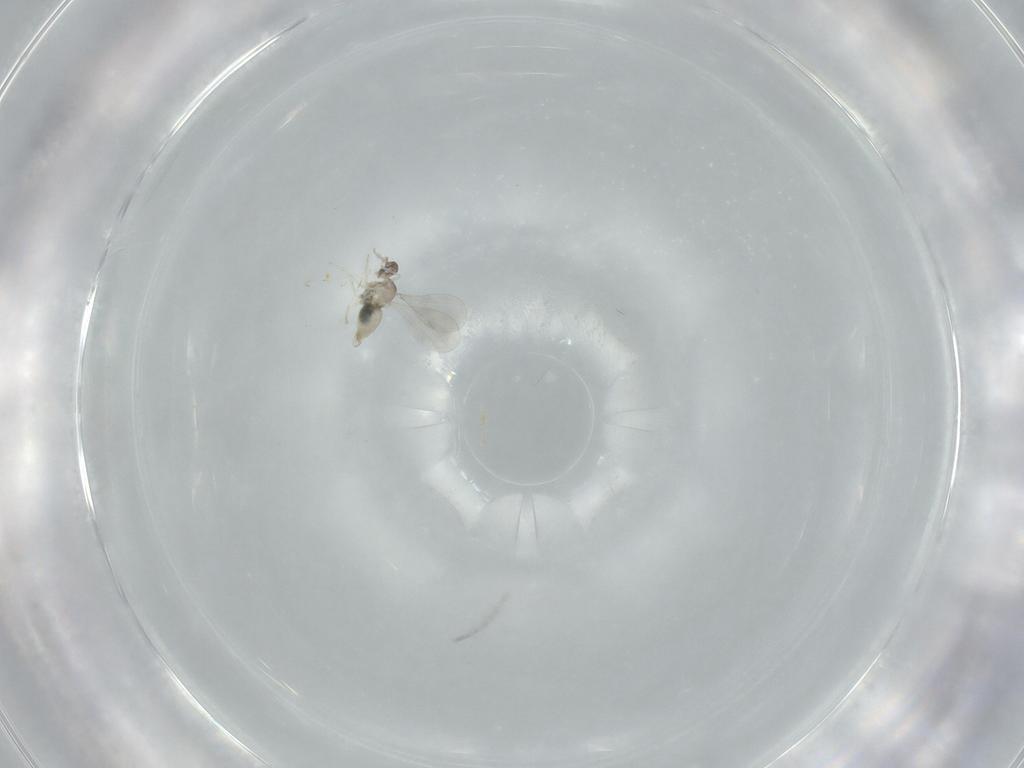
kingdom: Animalia
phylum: Arthropoda
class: Insecta
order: Diptera
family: Cecidomyiidae
